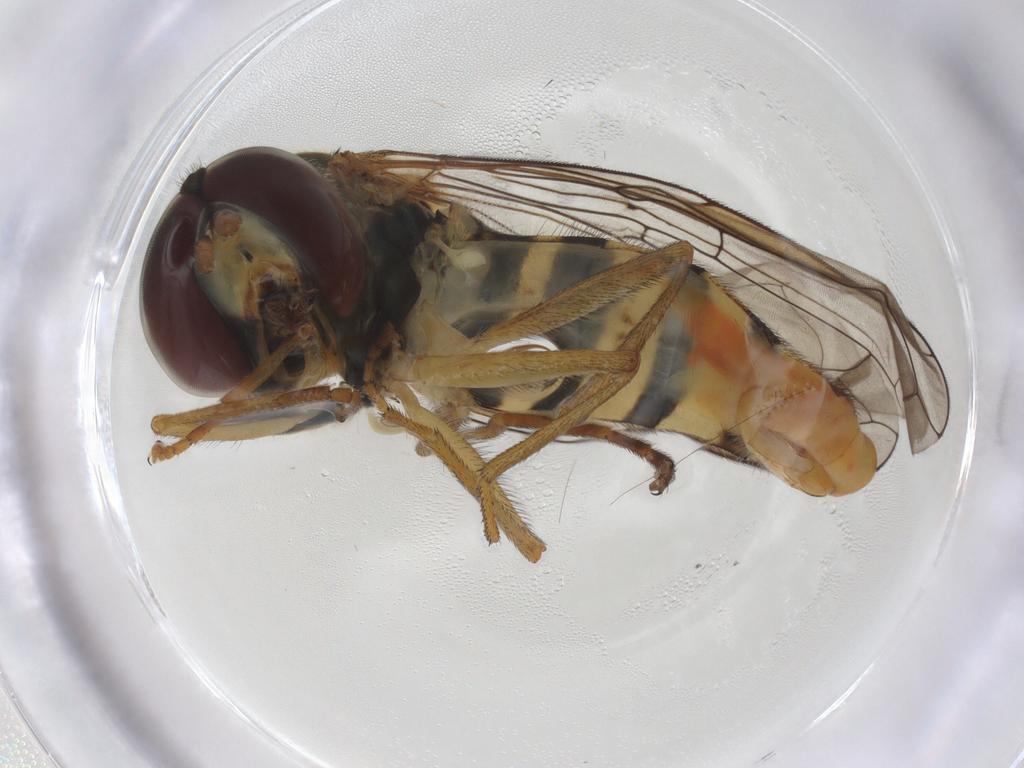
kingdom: Animalia
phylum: Arthropoda
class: Insecta
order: Diptera
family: Syrphidae
